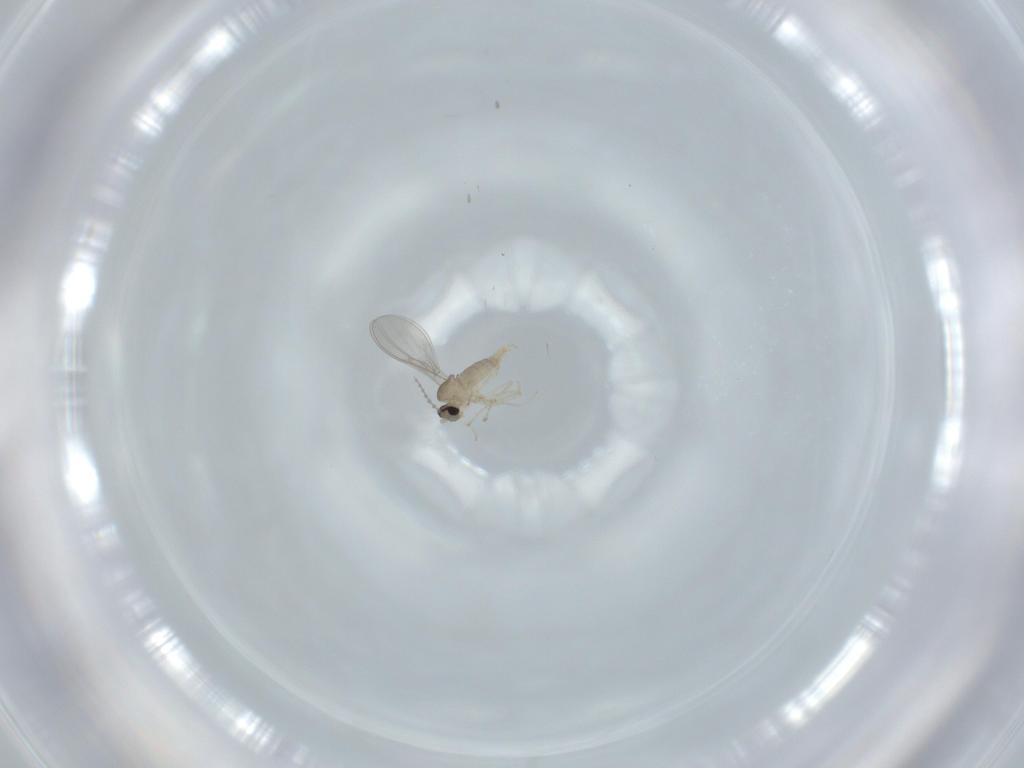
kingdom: Animalia
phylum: Arthropoda
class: Insecta
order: Diptera
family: Cecidomyiidae
